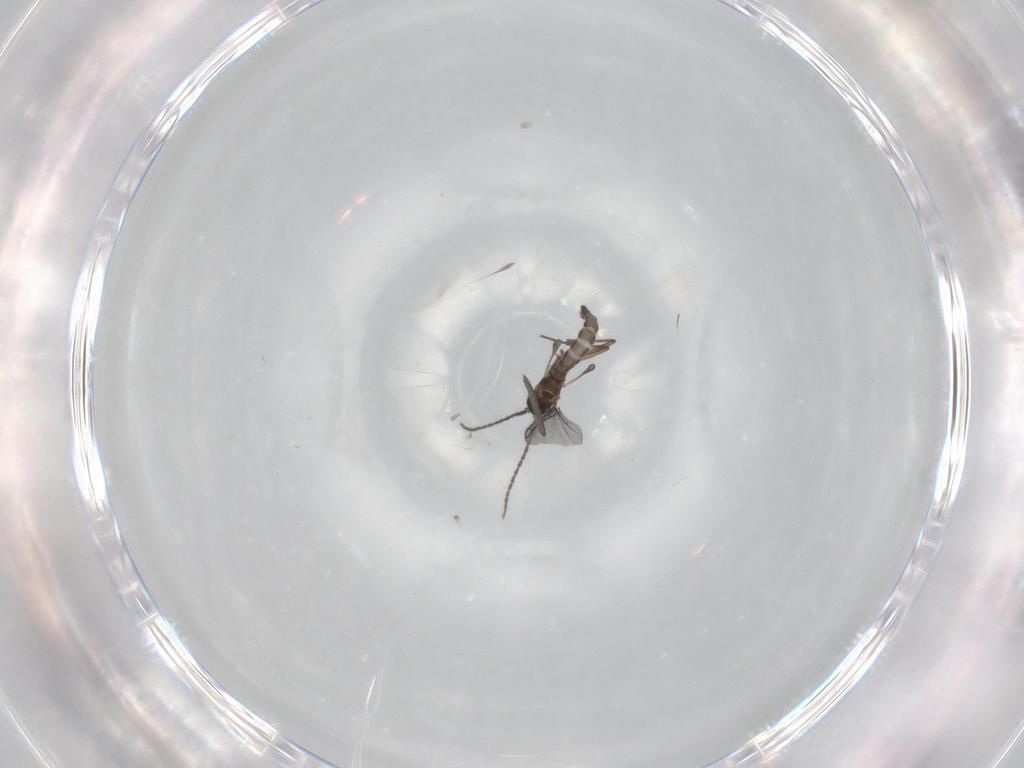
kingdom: Animalia
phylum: Arthropoda
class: Insecta
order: Diptera
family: Sciaridae
